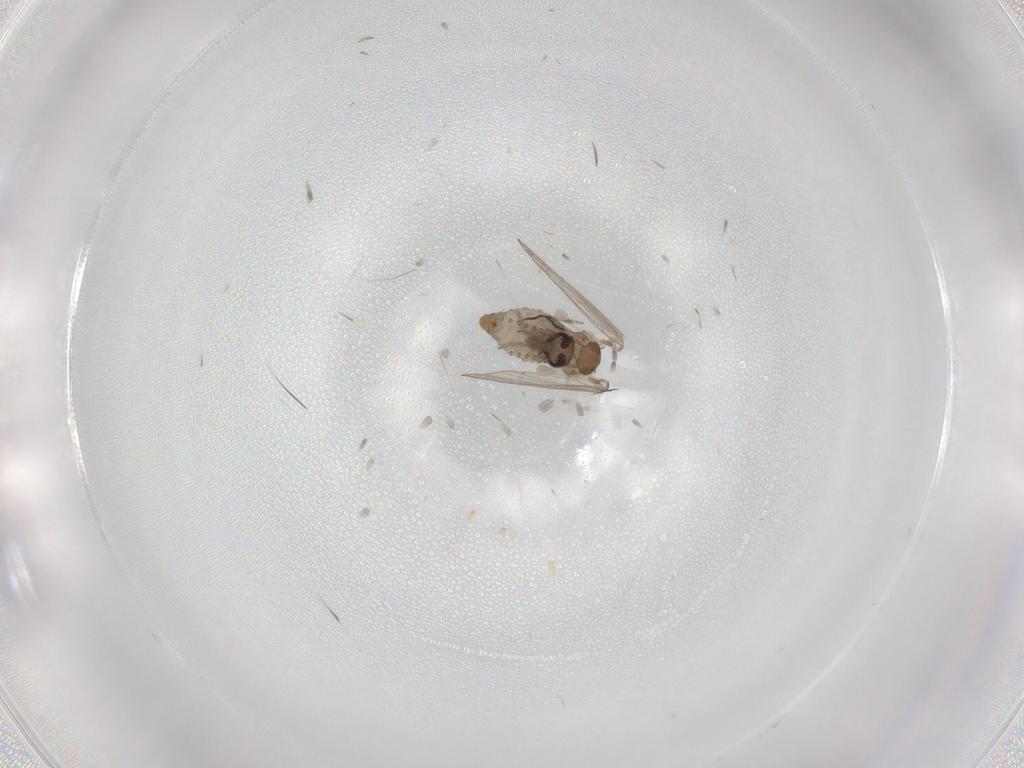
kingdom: Animalia
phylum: Arthropoda
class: Insecta
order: Diptera
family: Psychodidae
